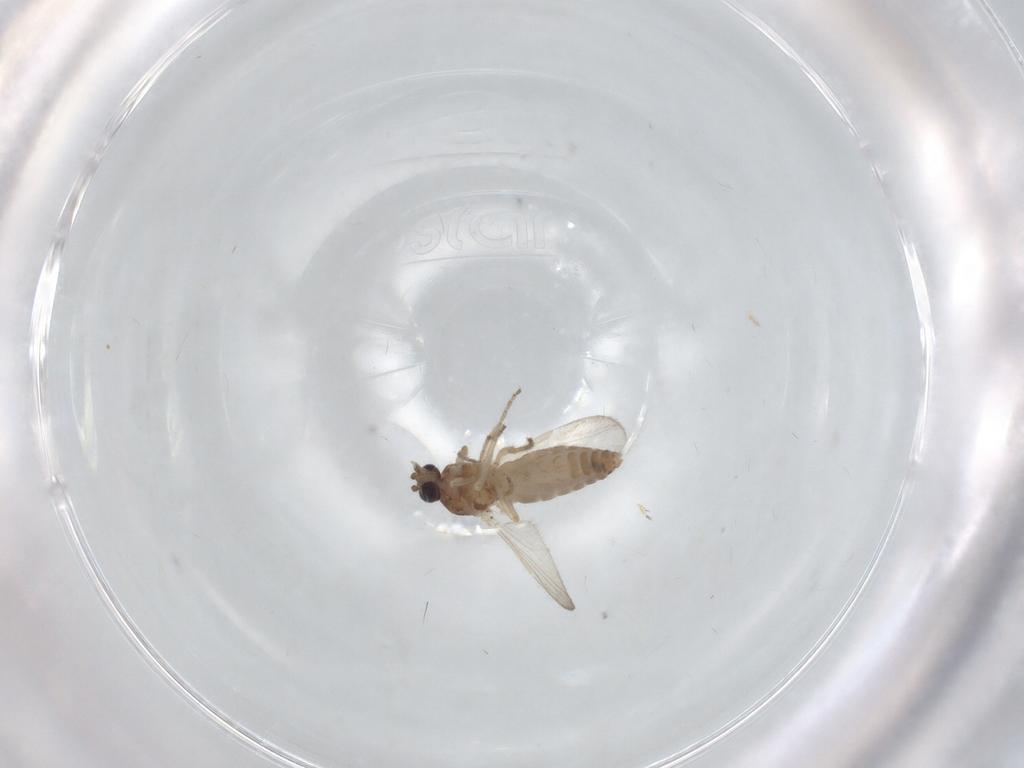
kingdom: Animalia
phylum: Arthropoda
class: Insecta
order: Diptera
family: Ceratopogonidae
